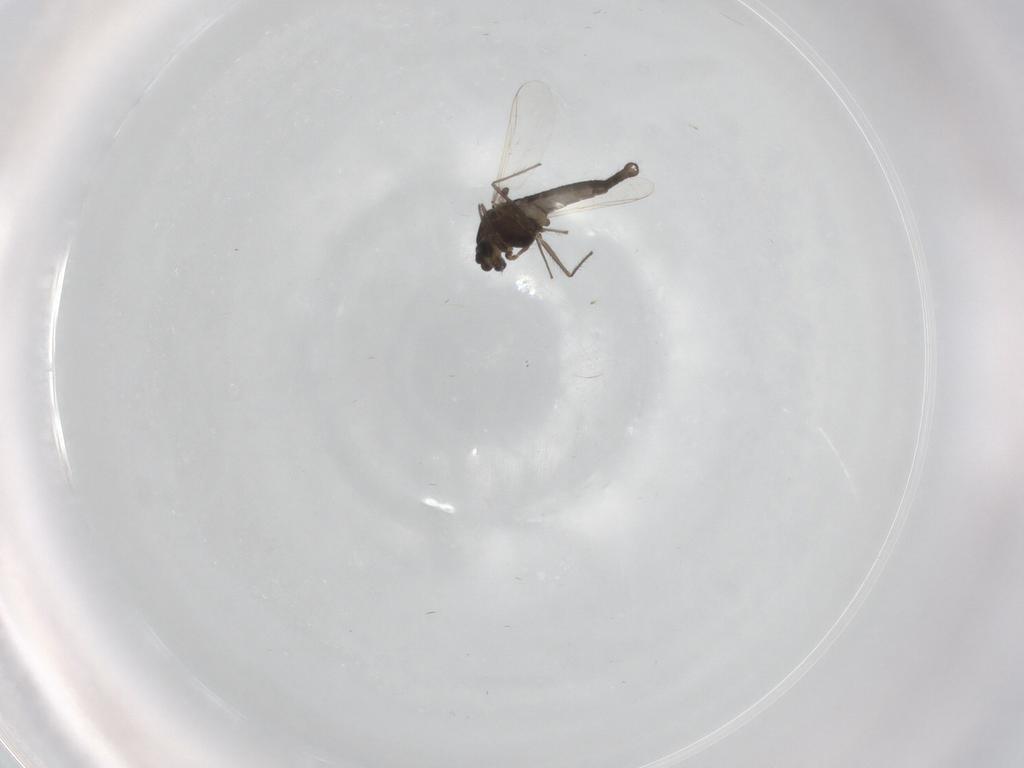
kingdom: Animalia
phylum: Arthropoda
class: Insecta
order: Diptera
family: Chironomidae
